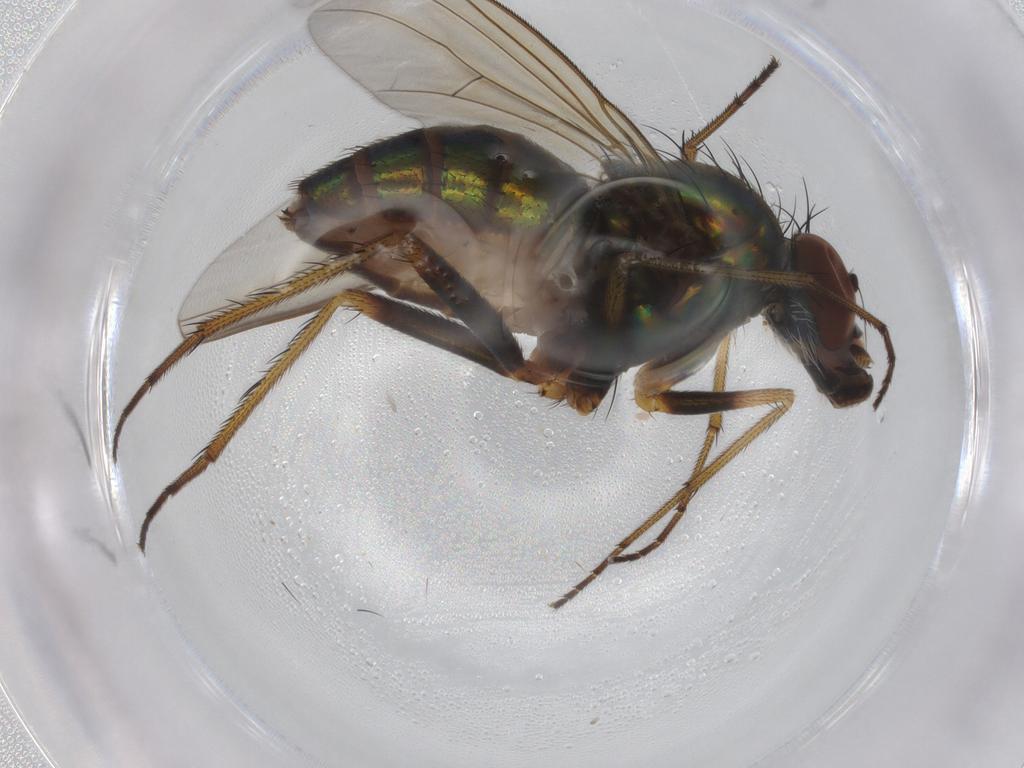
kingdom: Animalia
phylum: Arthropoda
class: Insecta
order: Diptera
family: Dolichopodidae
